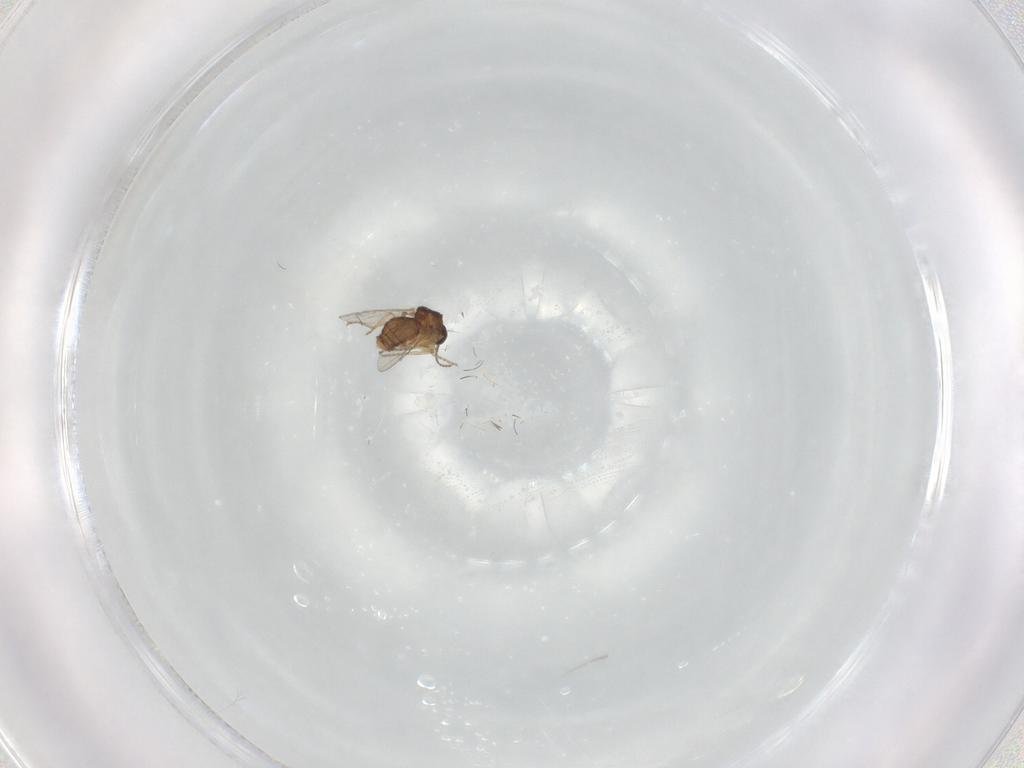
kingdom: Animalia
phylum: Arthropoda
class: Insecta
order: Diptera
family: Ceratopogonidae
